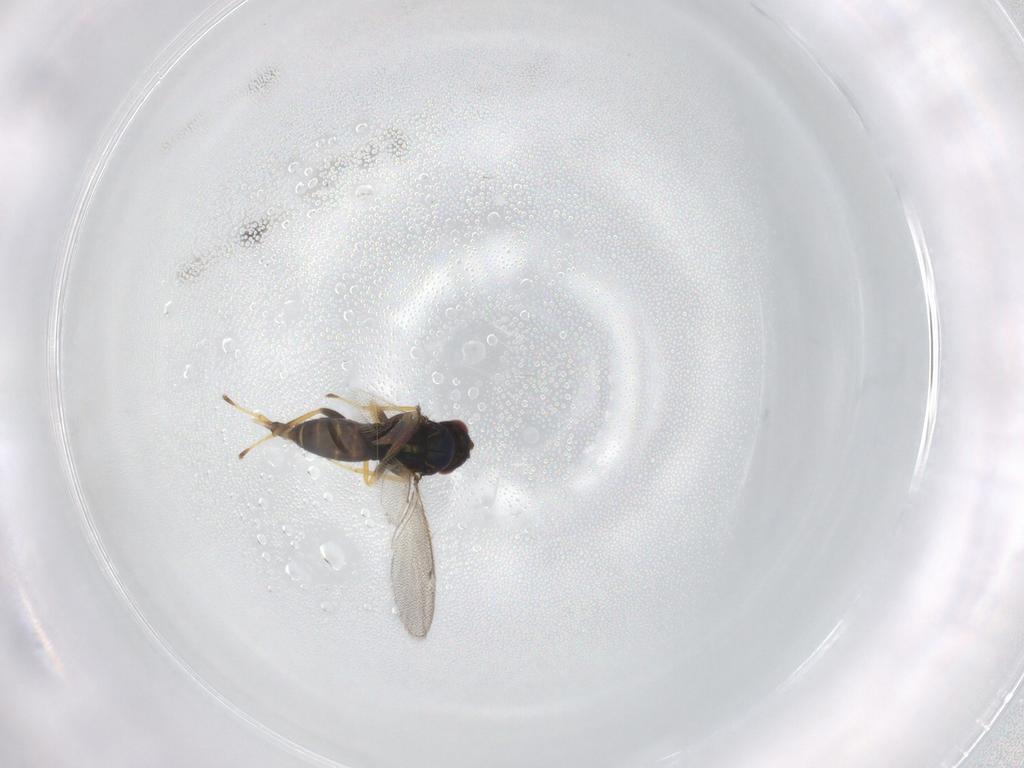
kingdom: Animalia
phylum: Arthropoda
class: Insecta
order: Hymenoptera
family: Eulophidae
